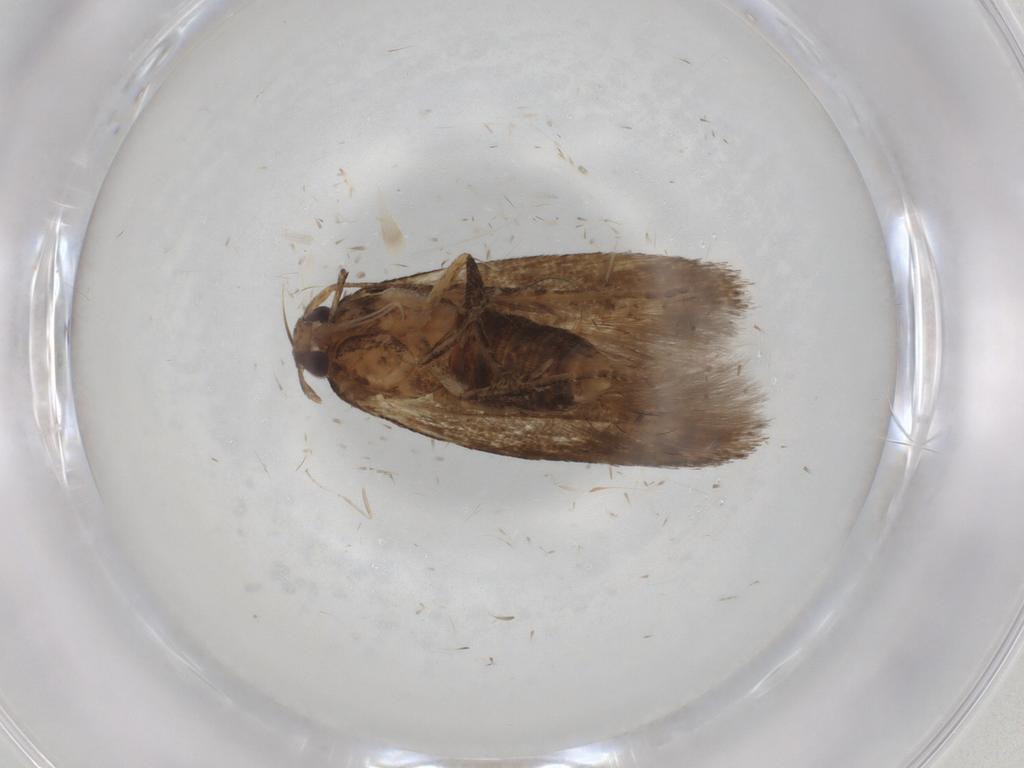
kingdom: Animalia
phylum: Arthropoda
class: Insecta
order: Lepidoptera
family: Cosmopterigidae
